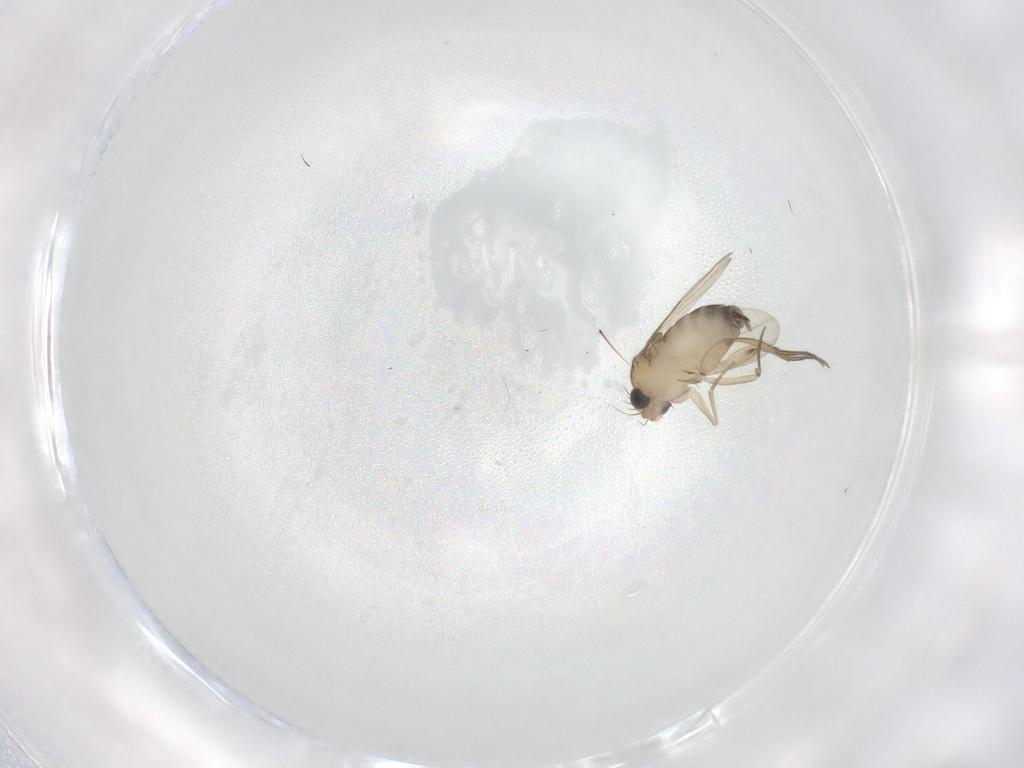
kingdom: Animalia
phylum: Arthropoda
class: Insecta
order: Diptera
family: Phoridae
